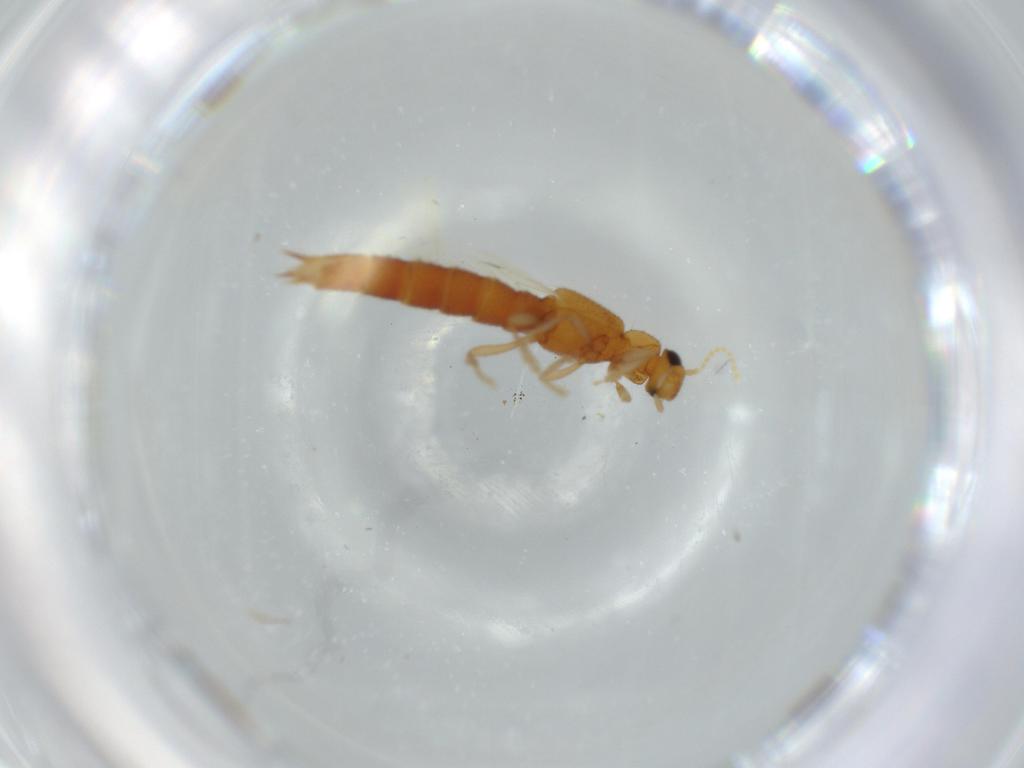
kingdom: Animalia
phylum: Arthropoda
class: Insecta
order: Coleoptera
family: Staphylinidae
